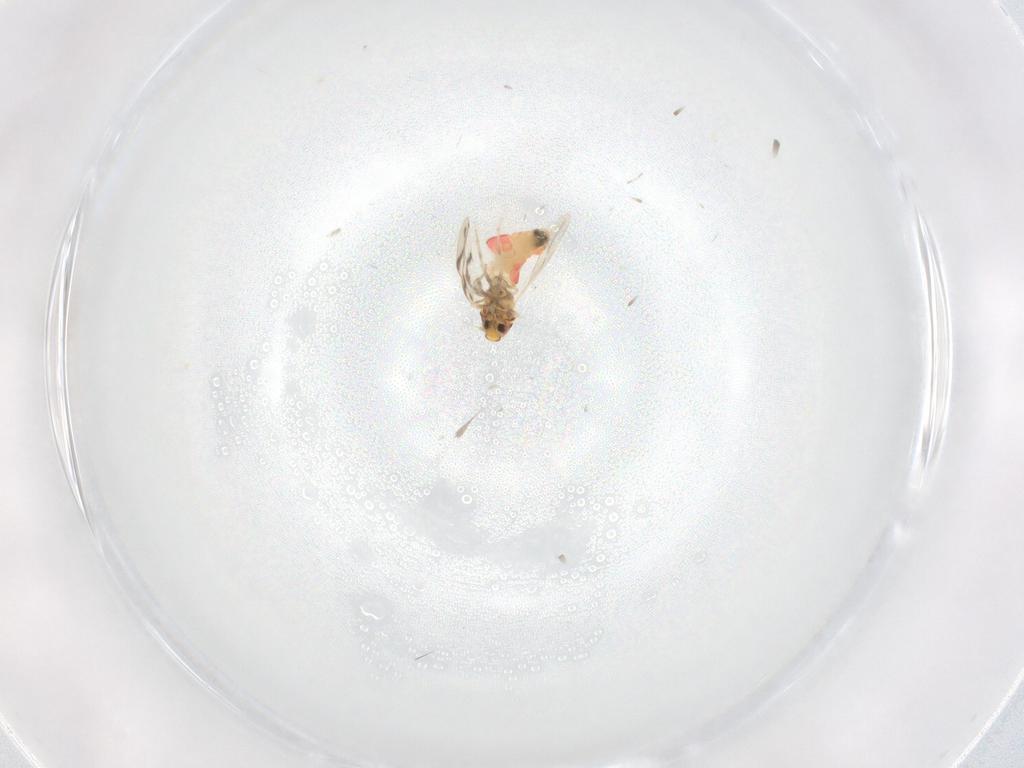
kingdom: Animalia
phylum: Arthropoda
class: Insecta
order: Hemiptera
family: Aleyrodidae
